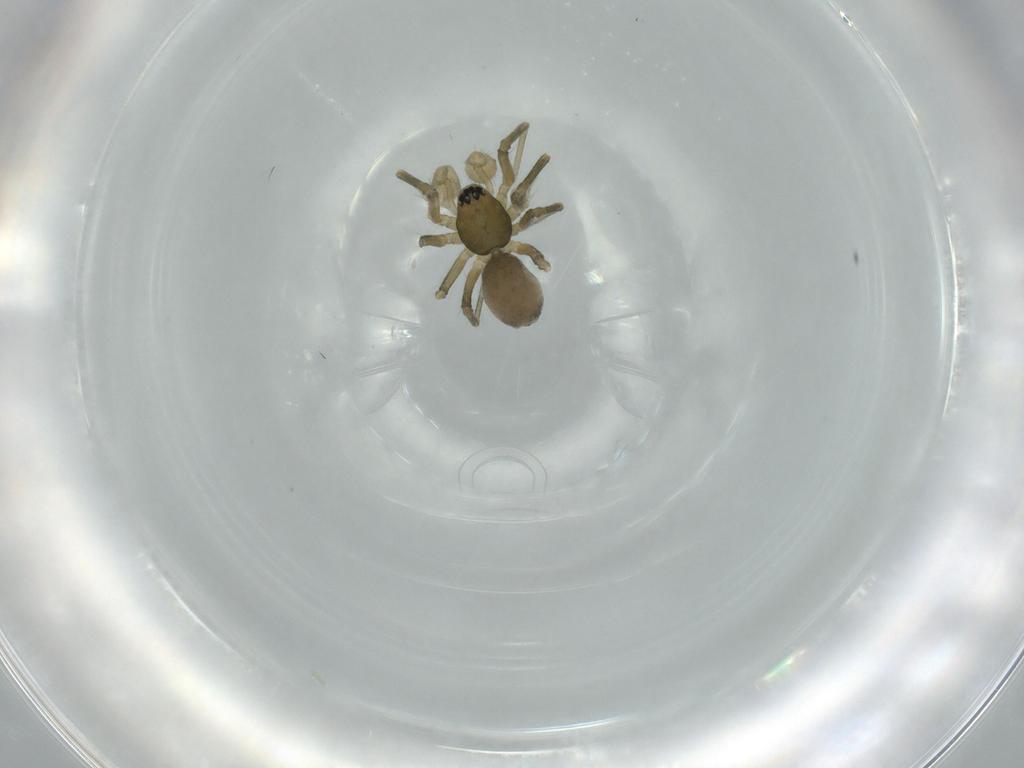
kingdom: Animalia
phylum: Arthropoda
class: Arachnida
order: Araneae
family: Linyphiidae
